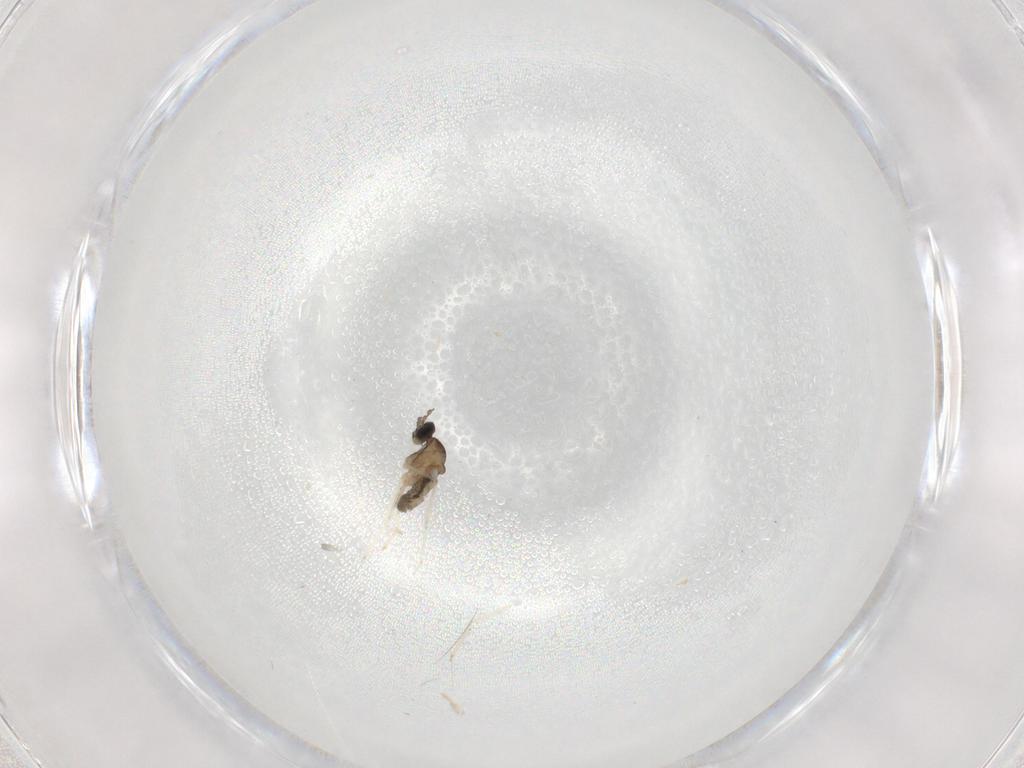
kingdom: Animalia
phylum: Arthropoda
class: Insecta
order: Diptera
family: Cecidomyiidae
